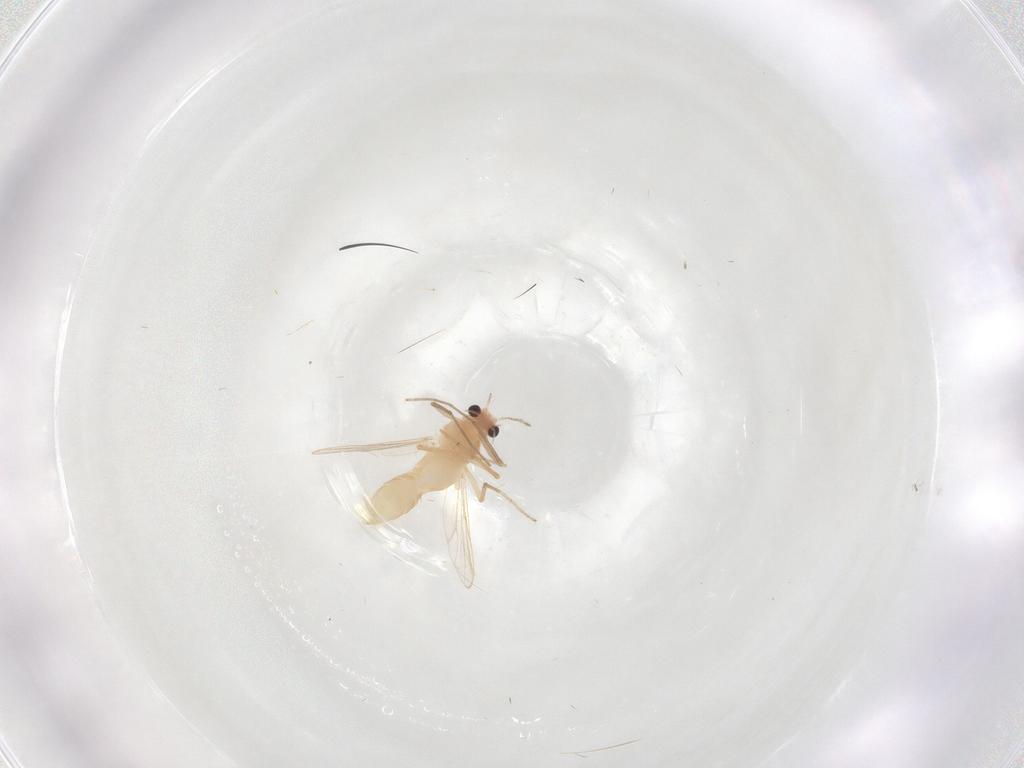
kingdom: Animalia
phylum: Arthropoda
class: Insecta
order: Diptera
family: Chironomidae
